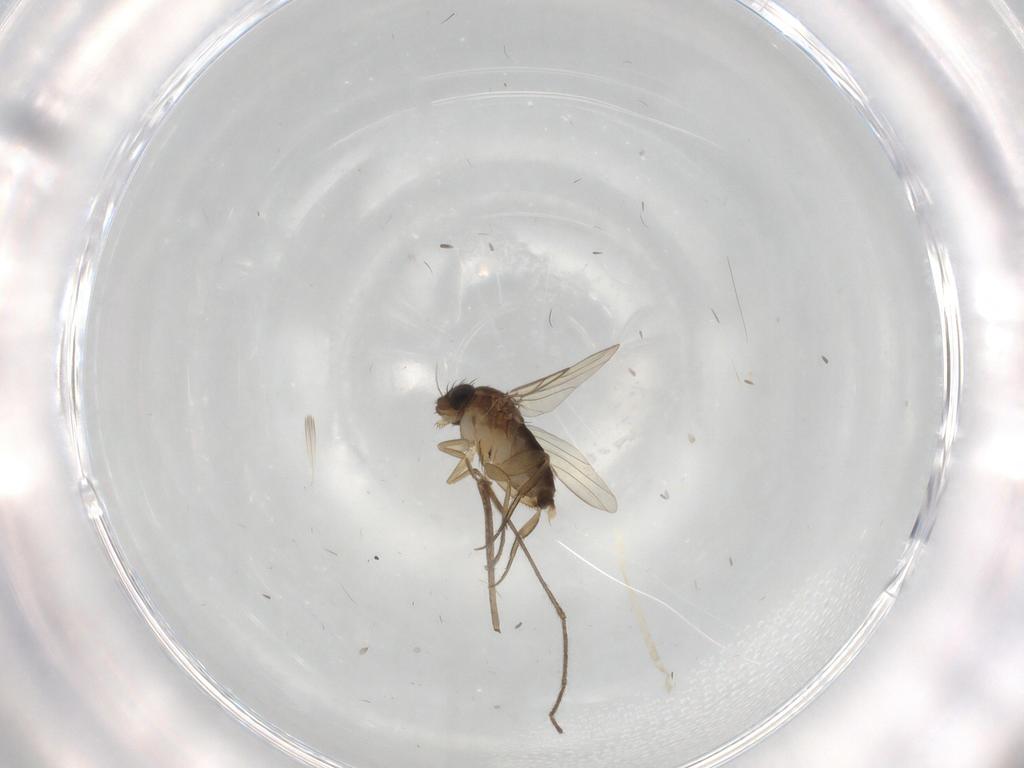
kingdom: Animalia
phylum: Arthropoda
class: Insecta
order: Diptera
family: Phoridae
